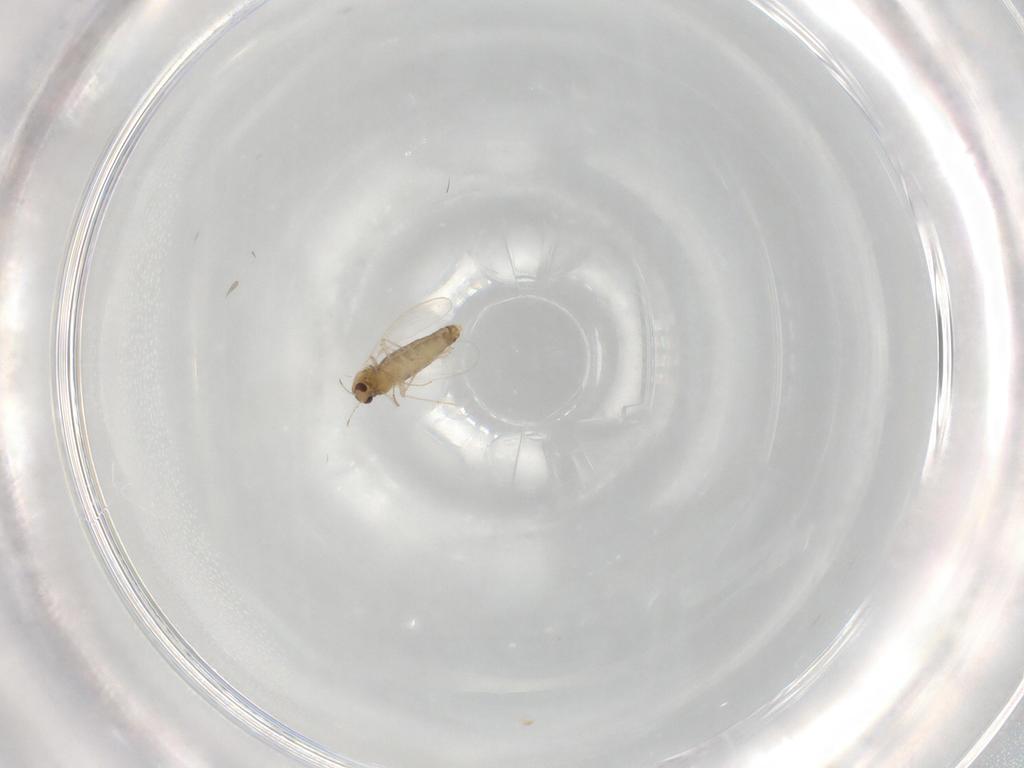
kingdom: Animalia
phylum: Arthropoda
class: Insecta
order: Diptera
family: Chironomidae
